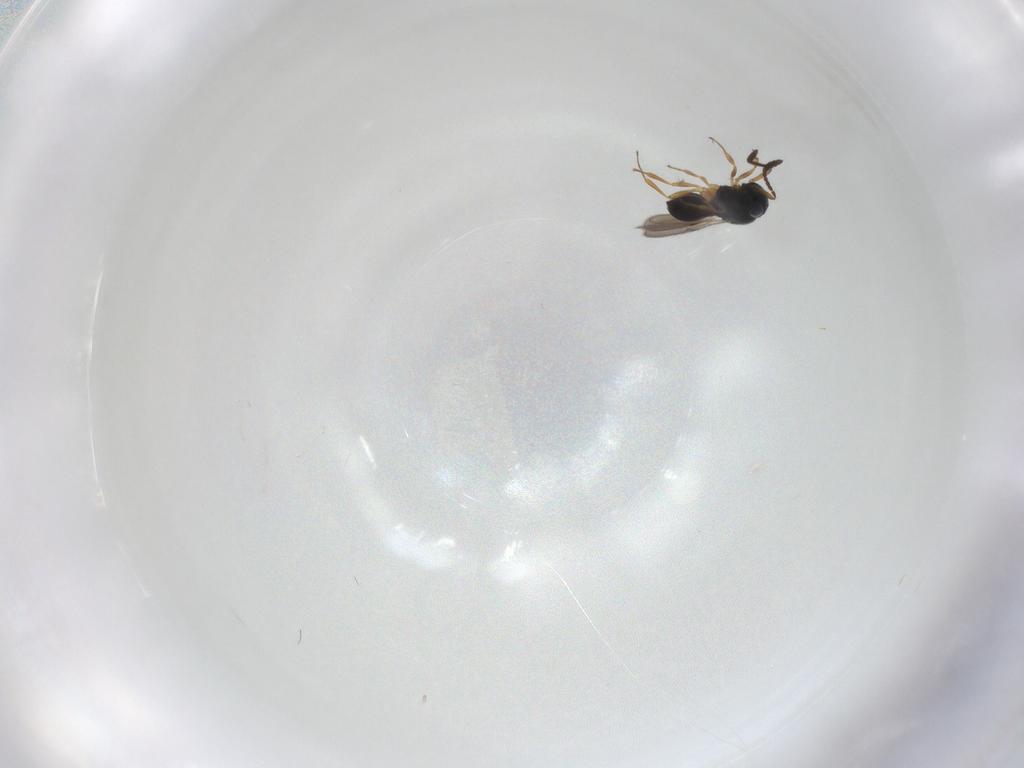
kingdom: Animalia
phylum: Arthropoda
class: Insecta
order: Hymenoptera
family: Scelionidae
